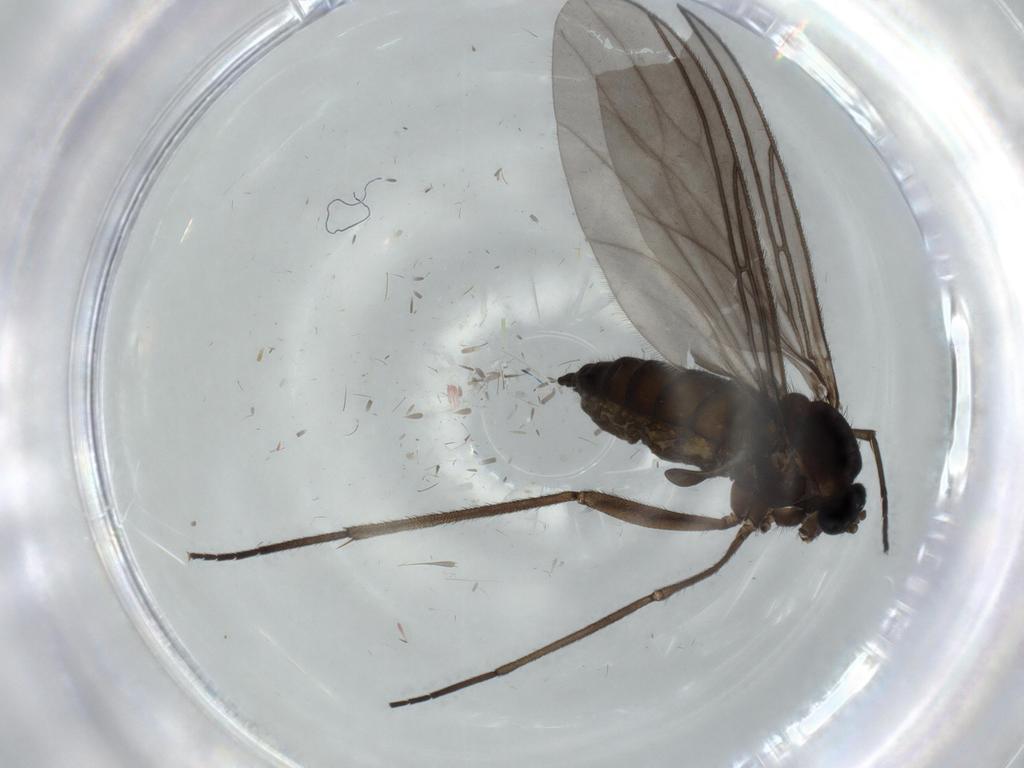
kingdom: Animalia
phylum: Arthropoda
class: Insecta
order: Diptera
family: Sciaridae
